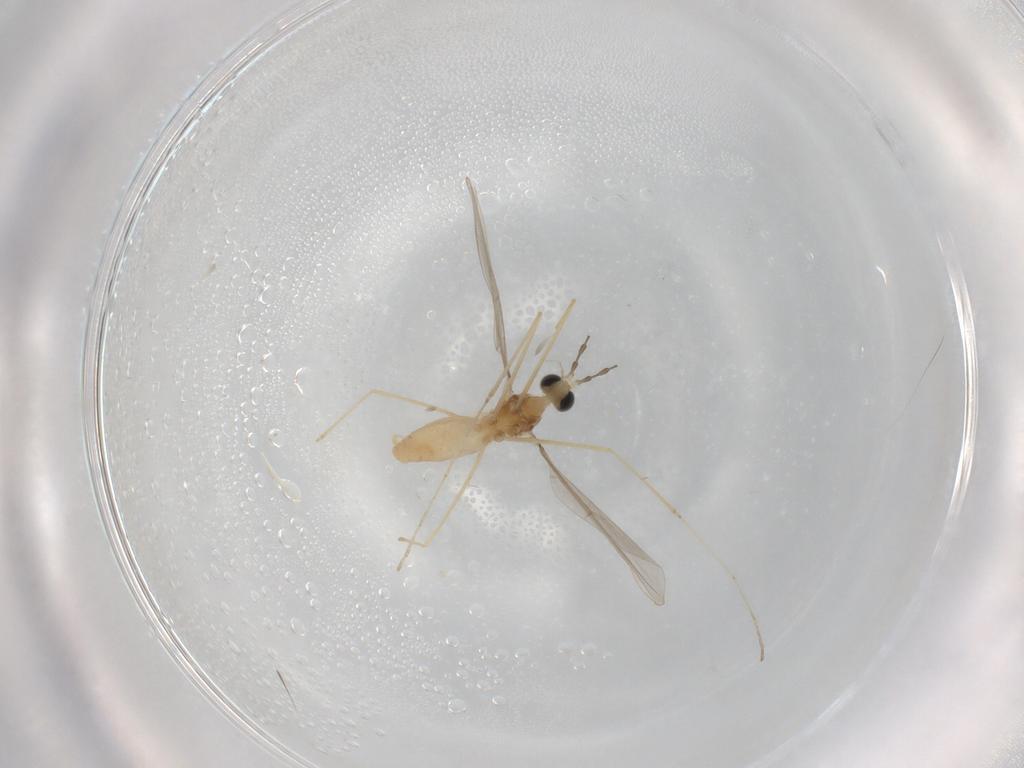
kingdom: Animalia
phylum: Arthropoda
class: Insecta
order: Diptera
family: Cecidomyiidae
